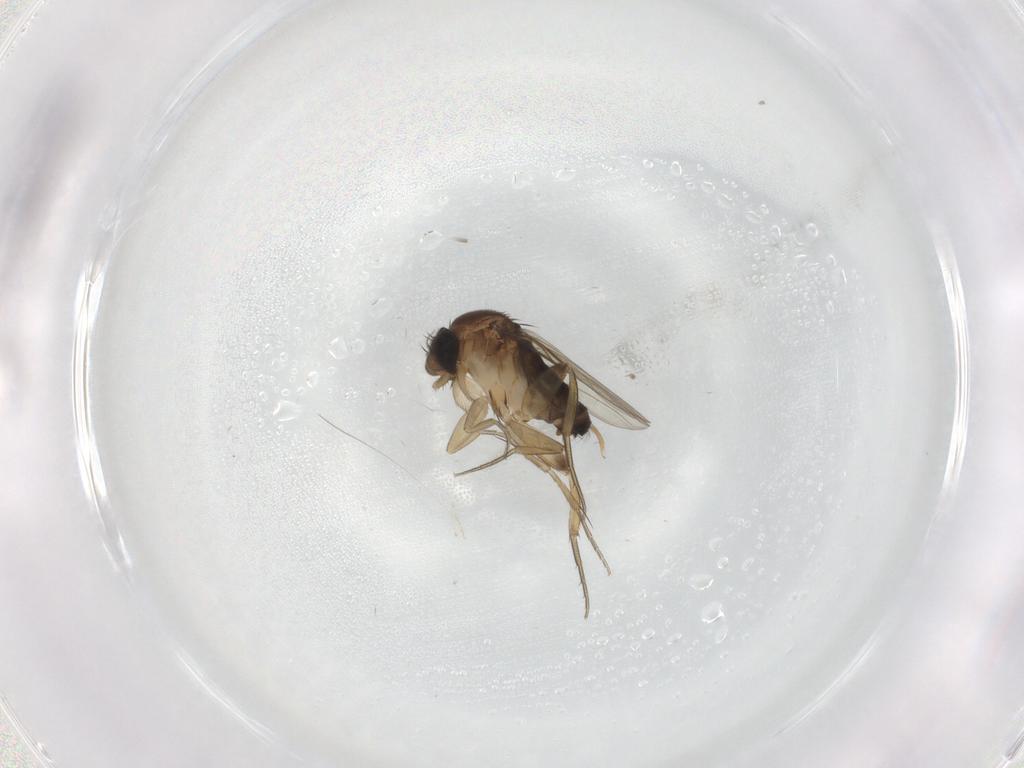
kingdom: Animalia
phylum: Arthropoda
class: Insecta
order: Diptera
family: Phoridae
